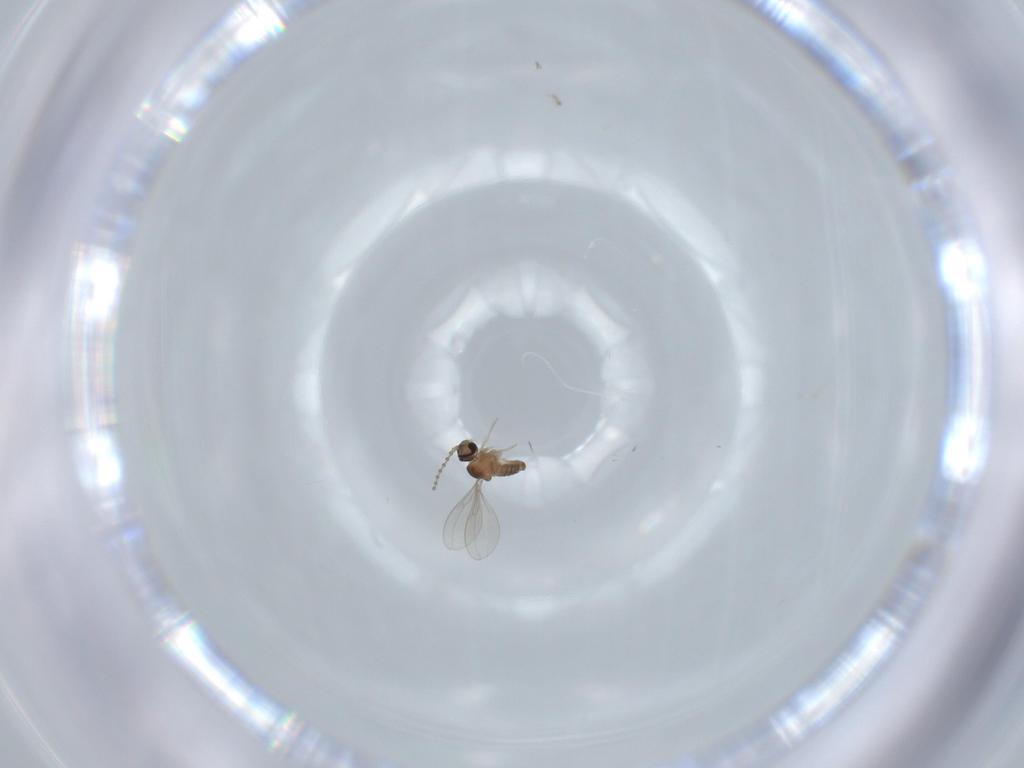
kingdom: Animalia
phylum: Arthropoda
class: Insecta
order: Diptera
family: Cecidomyiidae
